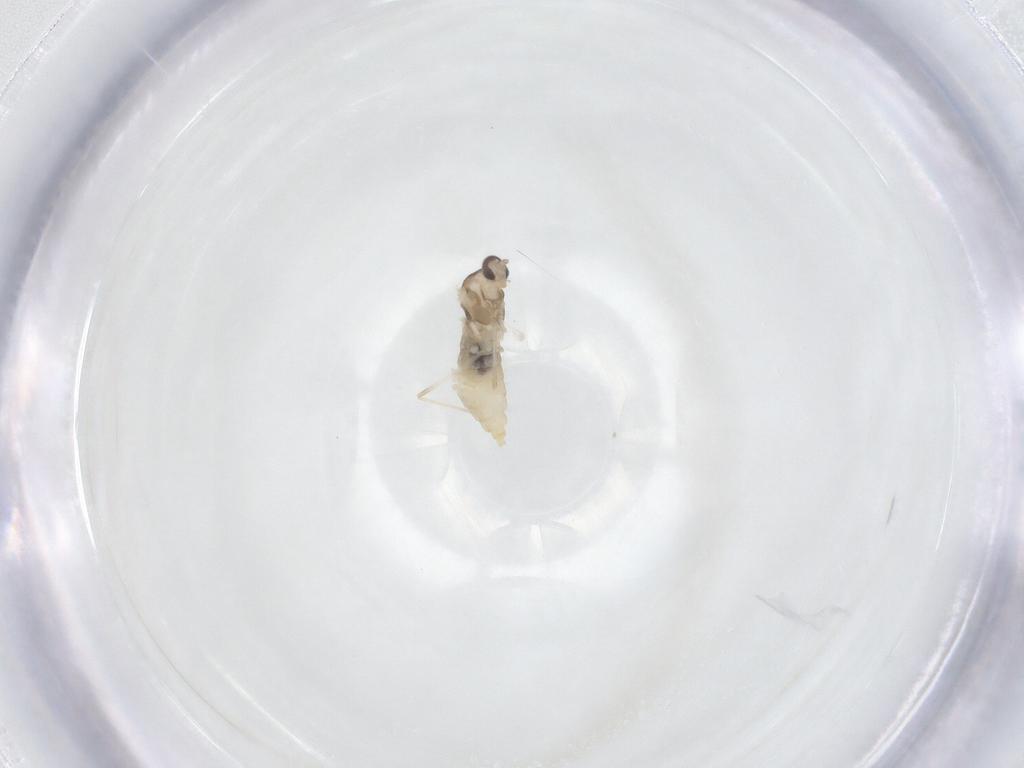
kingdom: Animalia
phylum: Arthropoda
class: Insecta
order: Diptera
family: Cecidomyiidae
